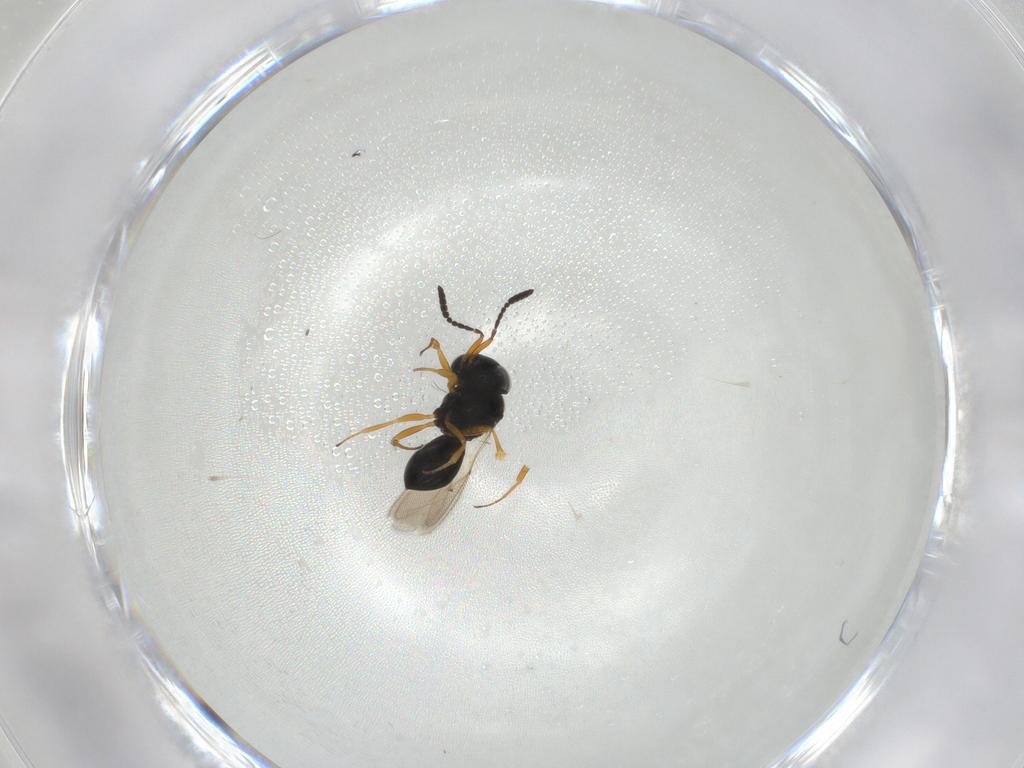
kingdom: Animalia
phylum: Arthropoda
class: Insecta
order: Hymenoptera
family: Scelionidae
